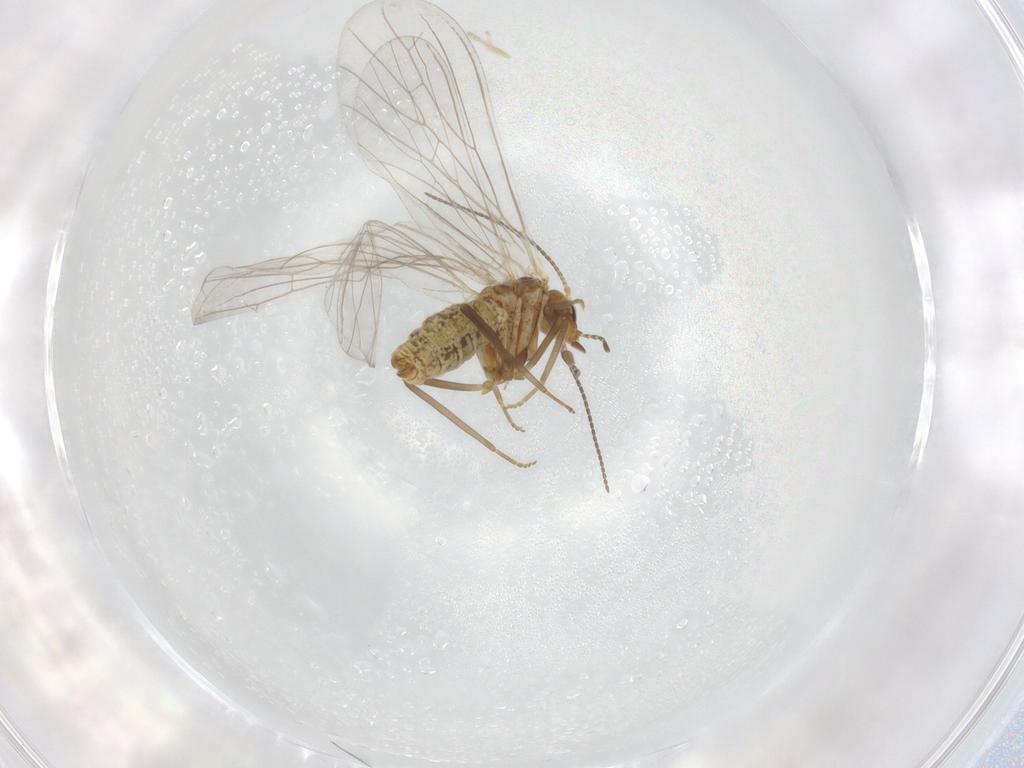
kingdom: Animalia
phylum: Arthropoda
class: Insecta
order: Neuroptera
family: Coniopterygidae
